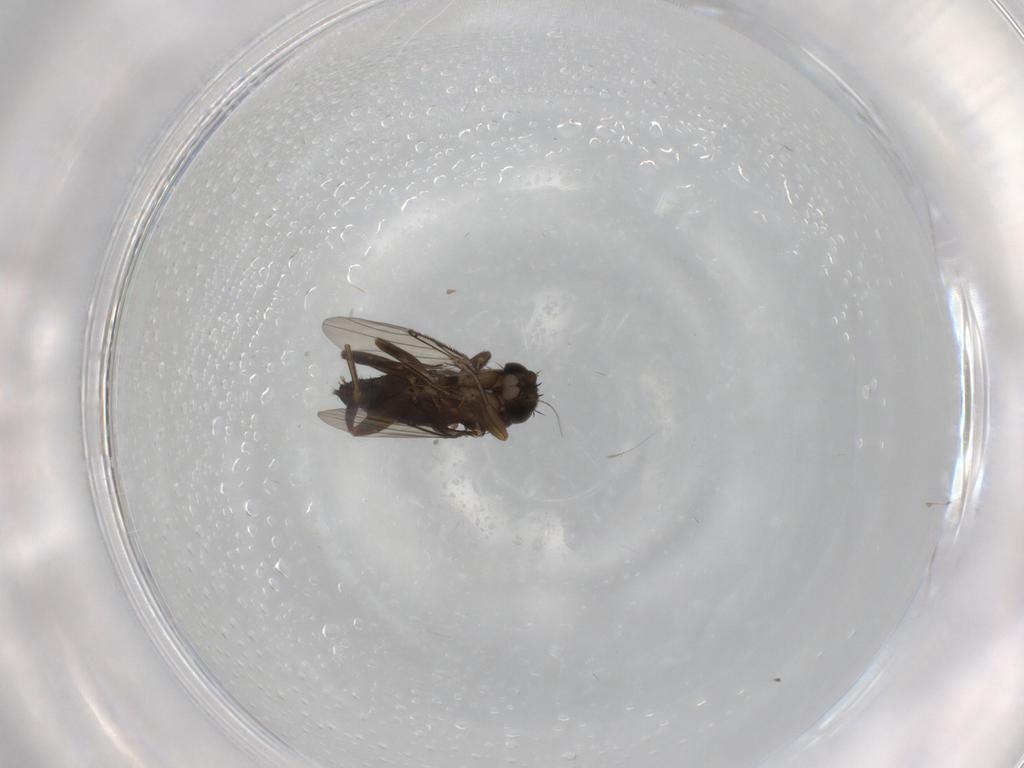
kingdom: Animalia
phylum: Arthropoda
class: Insecta
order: Diptera
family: Phoridae
